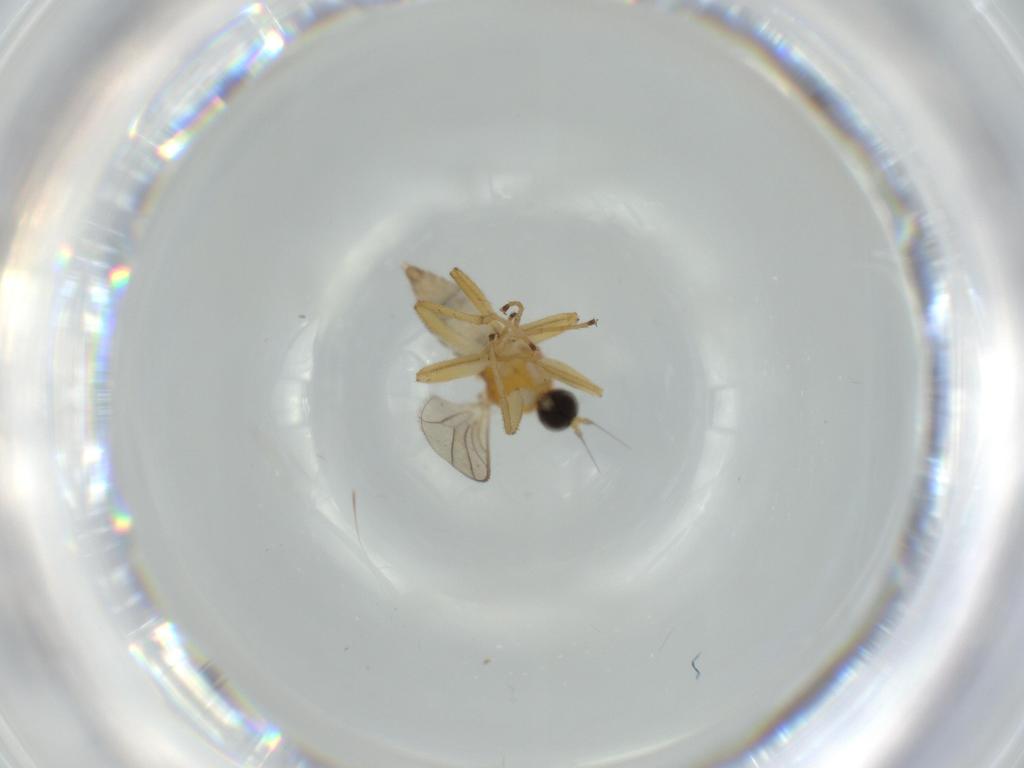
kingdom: Animalia
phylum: Arthropoda
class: Insecta
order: Diptera
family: Hybotidae
